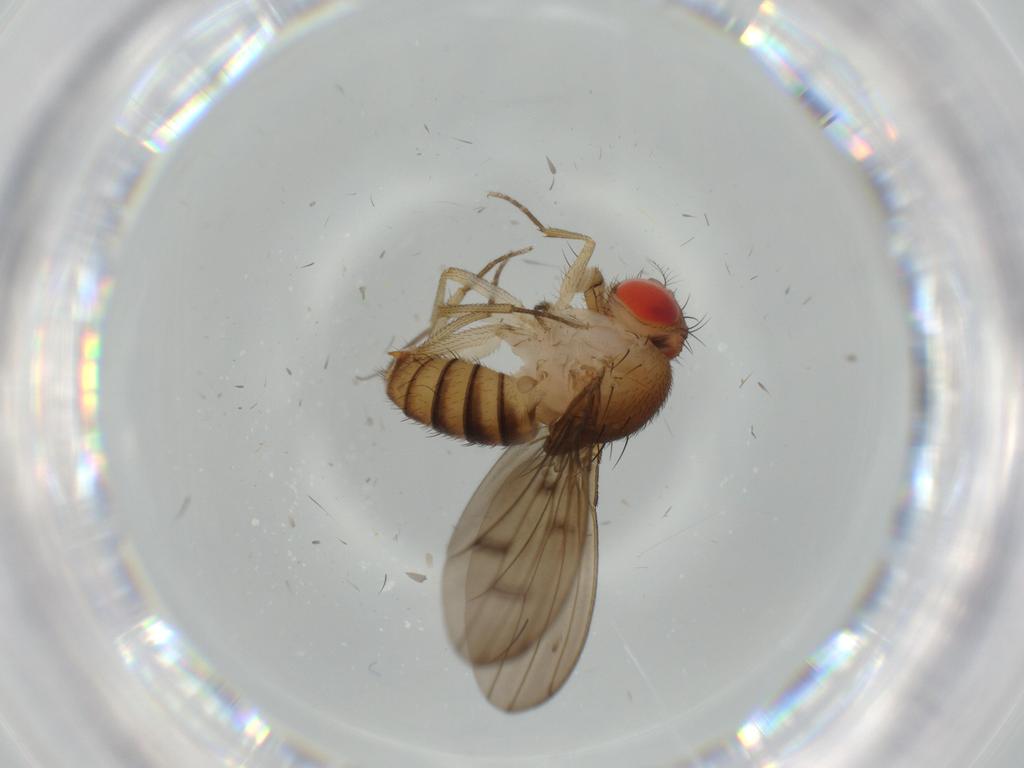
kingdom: Animalia
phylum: Arthropoda
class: Insecta
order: Diptera
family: Drosophilidae
